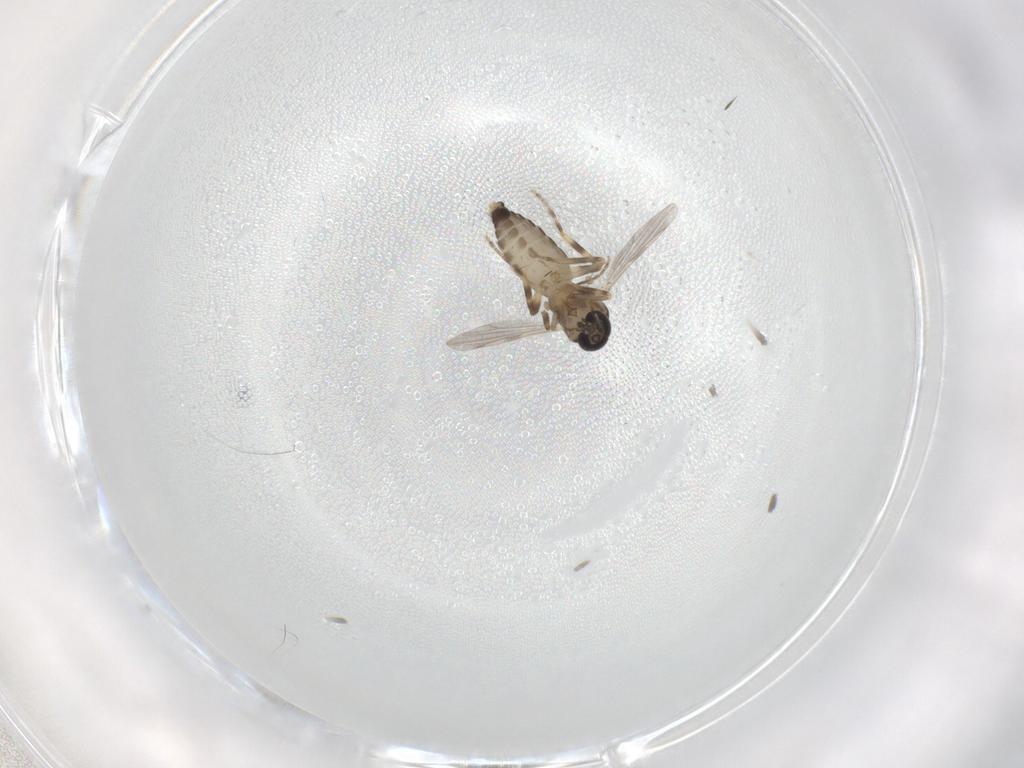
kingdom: Animalia
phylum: Arthropoda
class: Insecta
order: Diptera
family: Ceratopogonidae
